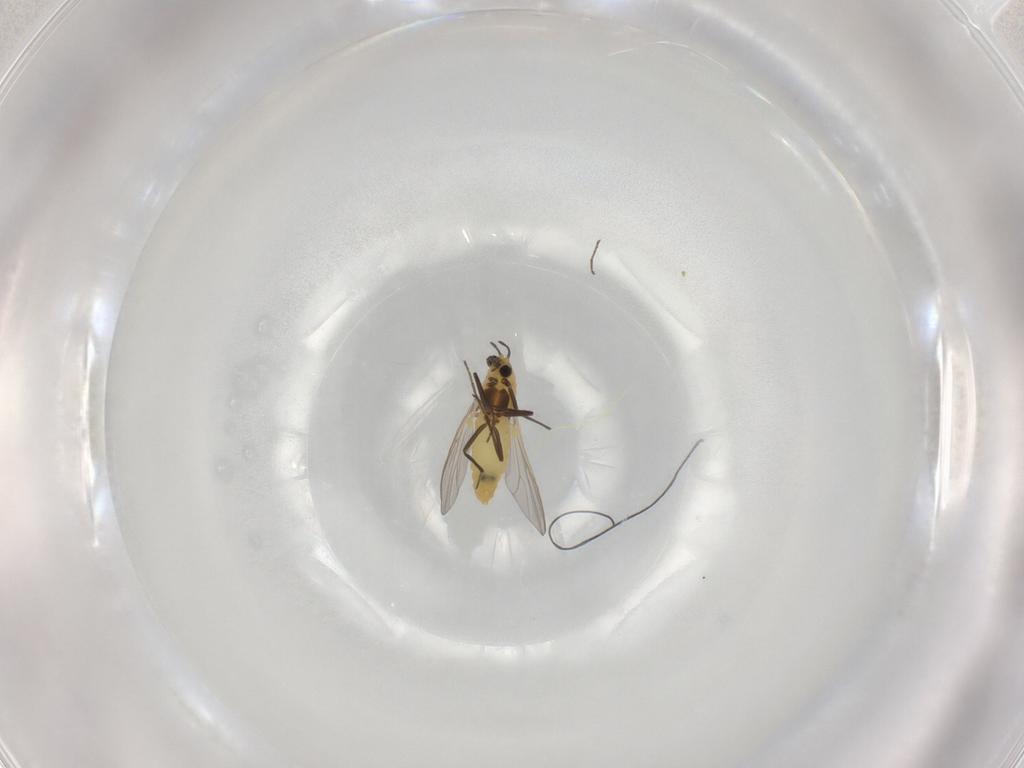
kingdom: Animalia
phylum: Arthropoda
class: Insecta
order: Diptera
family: Chironomidae
